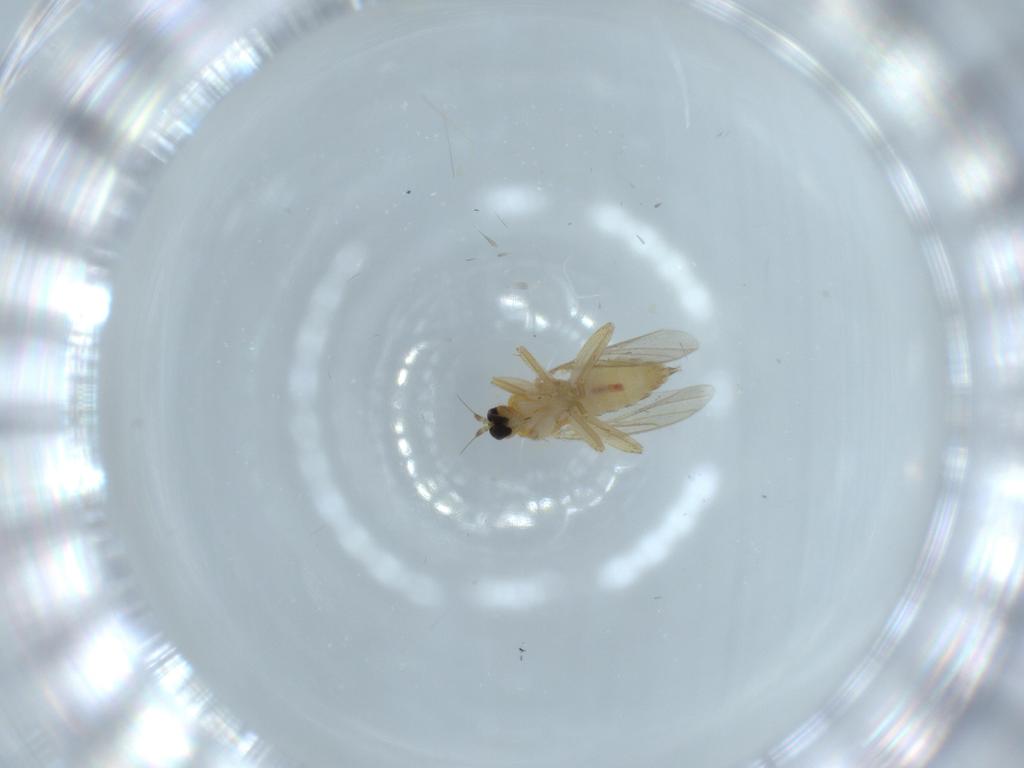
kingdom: Animalia
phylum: Arthropoda
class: Insecta
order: Diptera
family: Hybotidae
